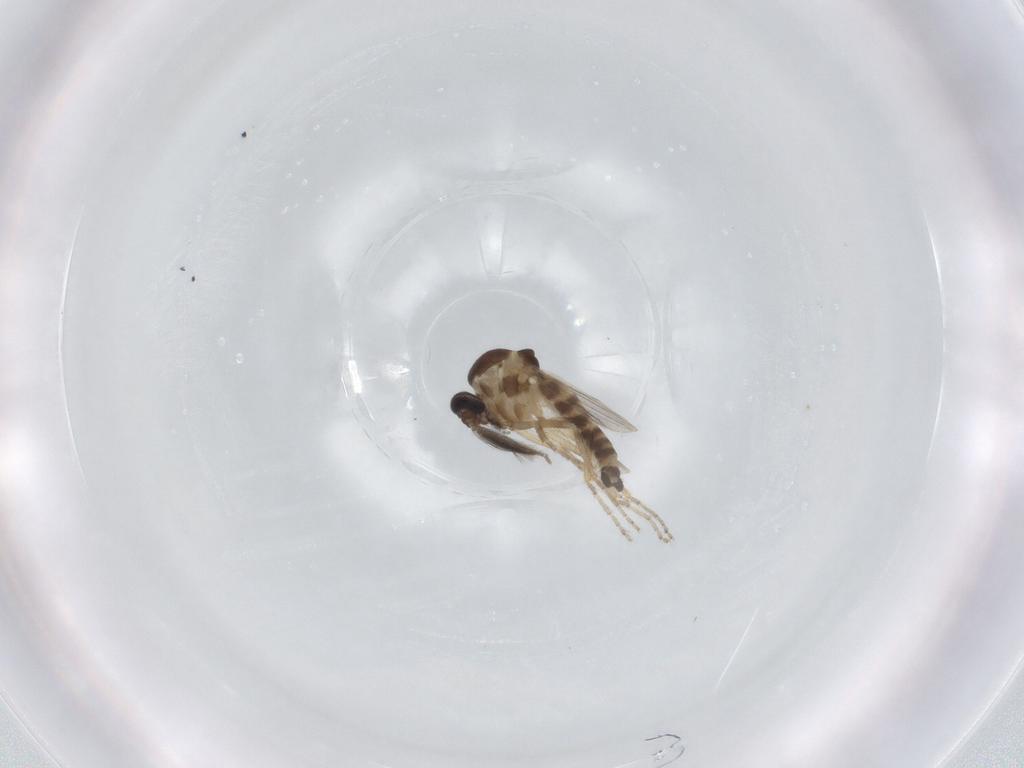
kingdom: Animalia
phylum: Arthropoda
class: Insecta
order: Diptera
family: Ceratopogonidae
